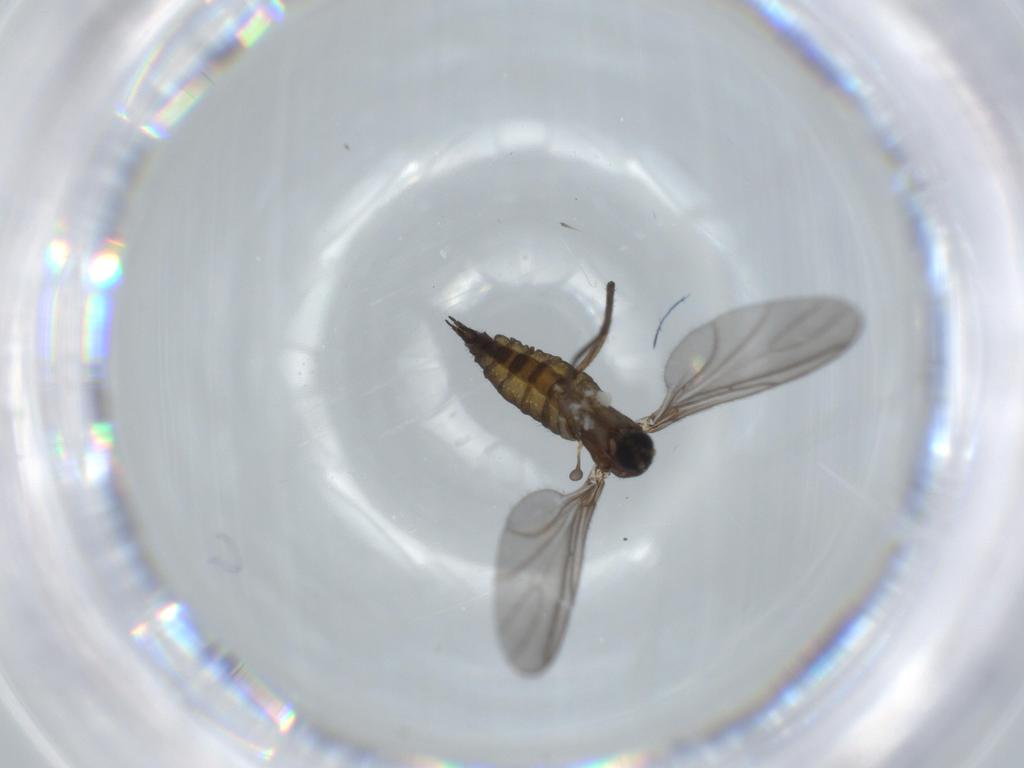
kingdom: Animalia
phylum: Arthropoda
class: Insecta
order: Diptera
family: Sciaridae
